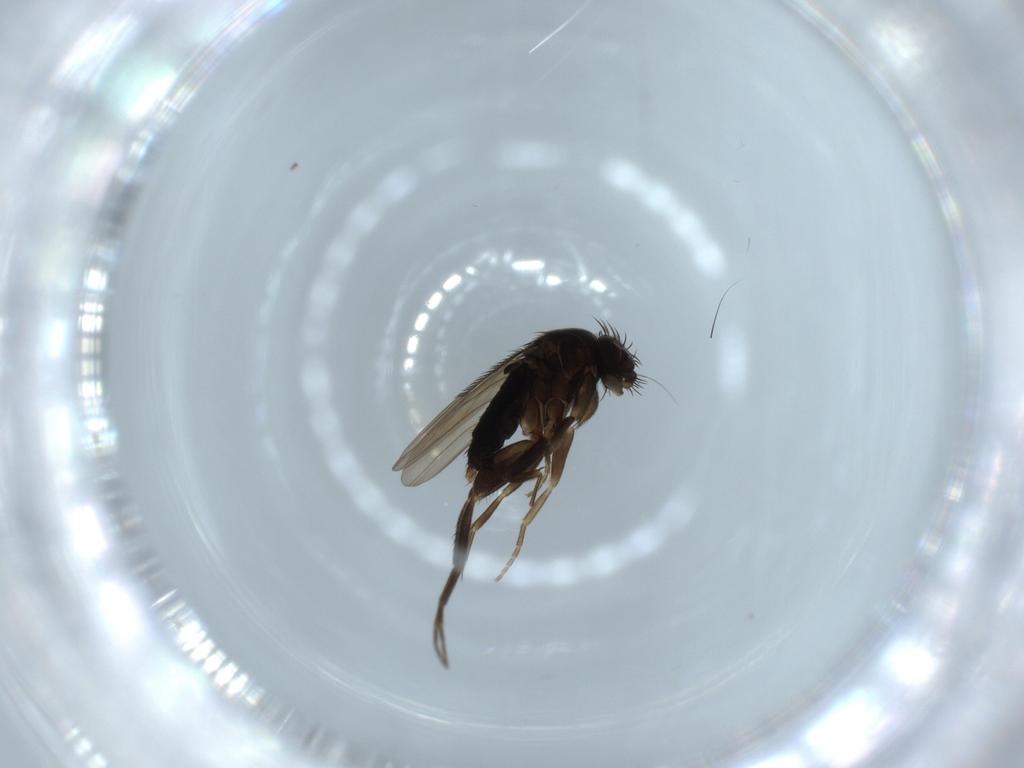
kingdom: Animalia
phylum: Arthropoda
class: Insecta
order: Diptera
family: Phoridae
